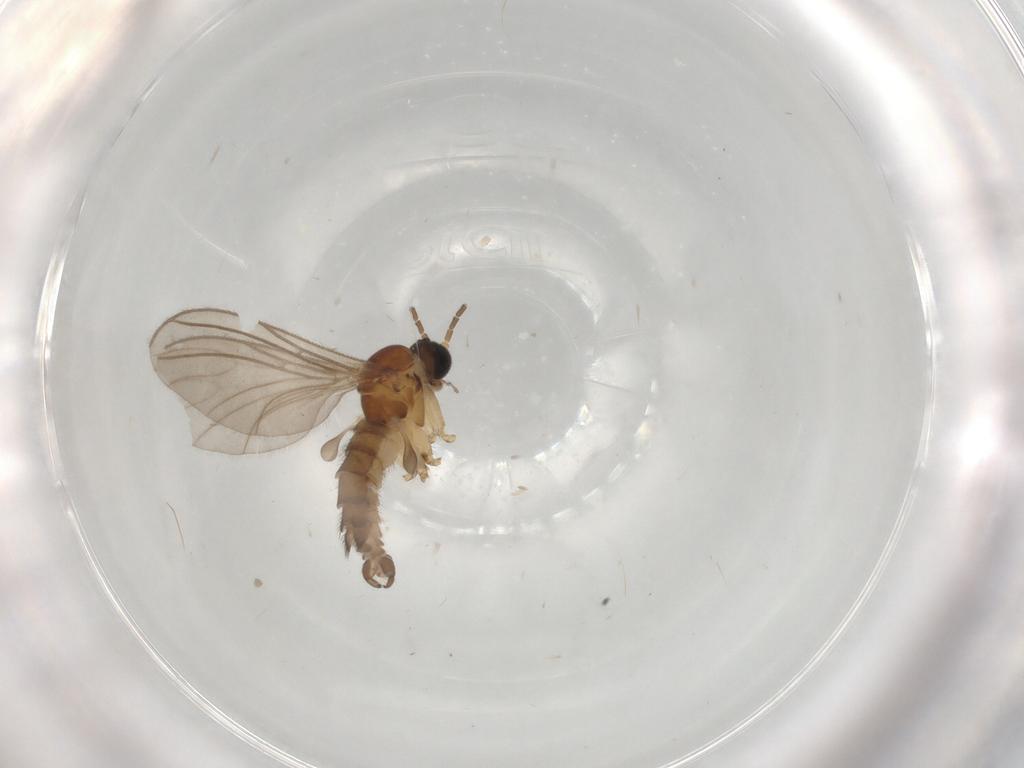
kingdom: Animalia
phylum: Arthropoda
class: Insecta
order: Diptera
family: Sciaridae
